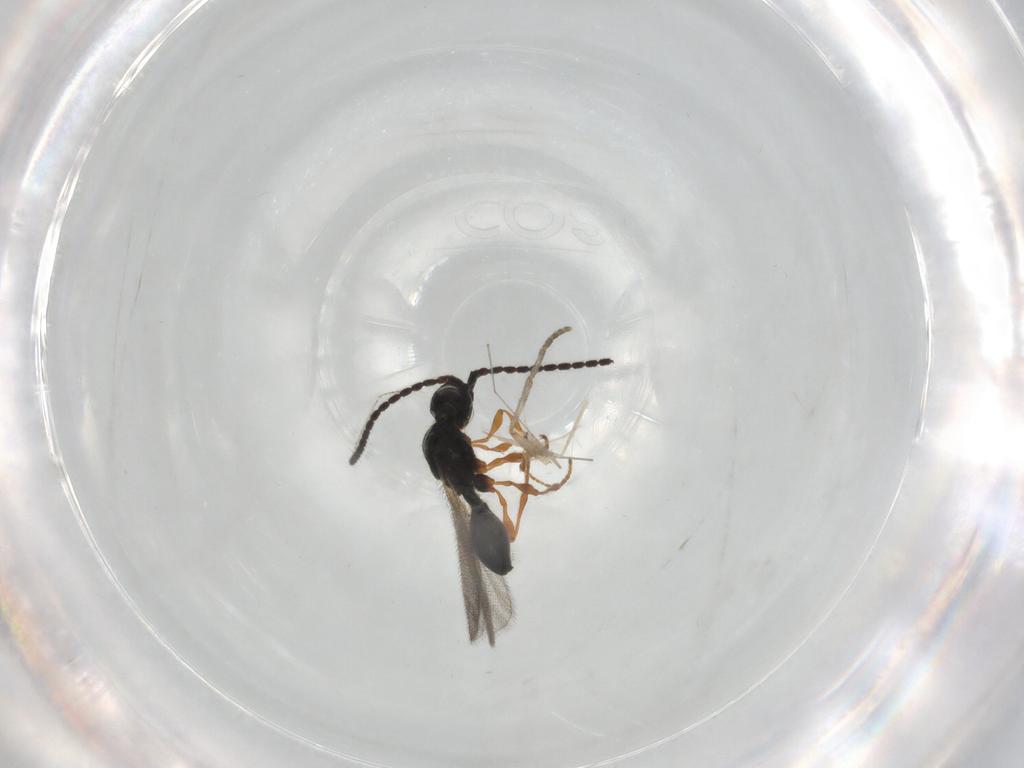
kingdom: Animalia
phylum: Arthropoda
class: Insecta
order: Hymenoptera
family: Diapriidae
